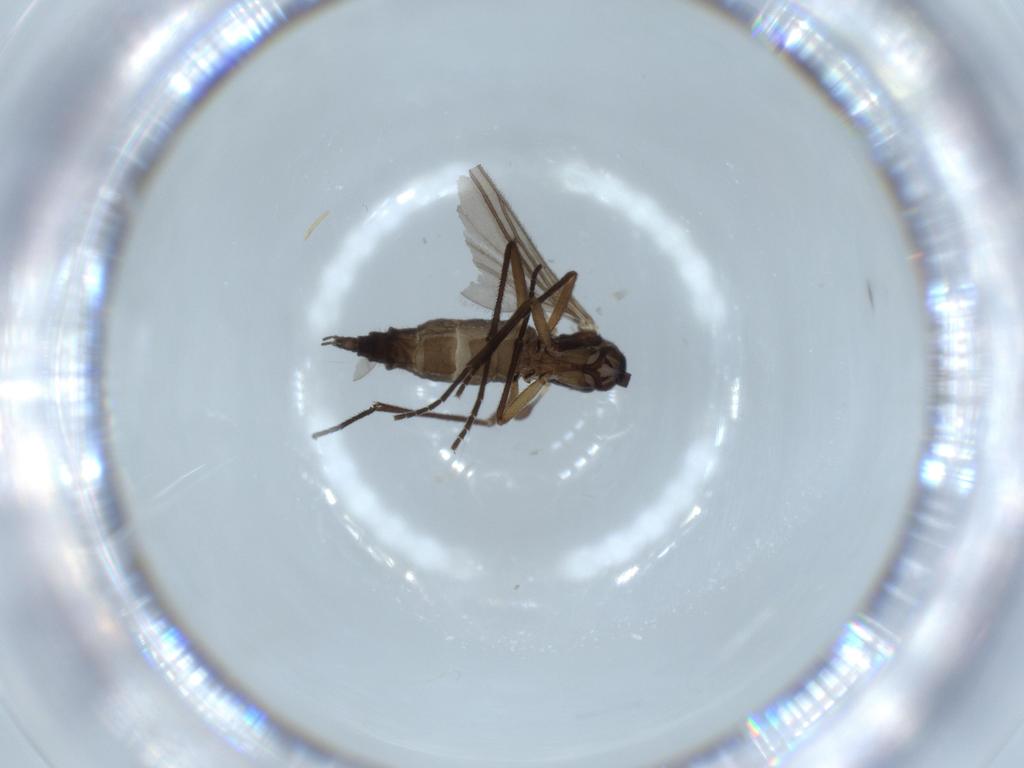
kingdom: Animalia
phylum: Arthropoda
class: Insecta
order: Diptera
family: Sciaridae
